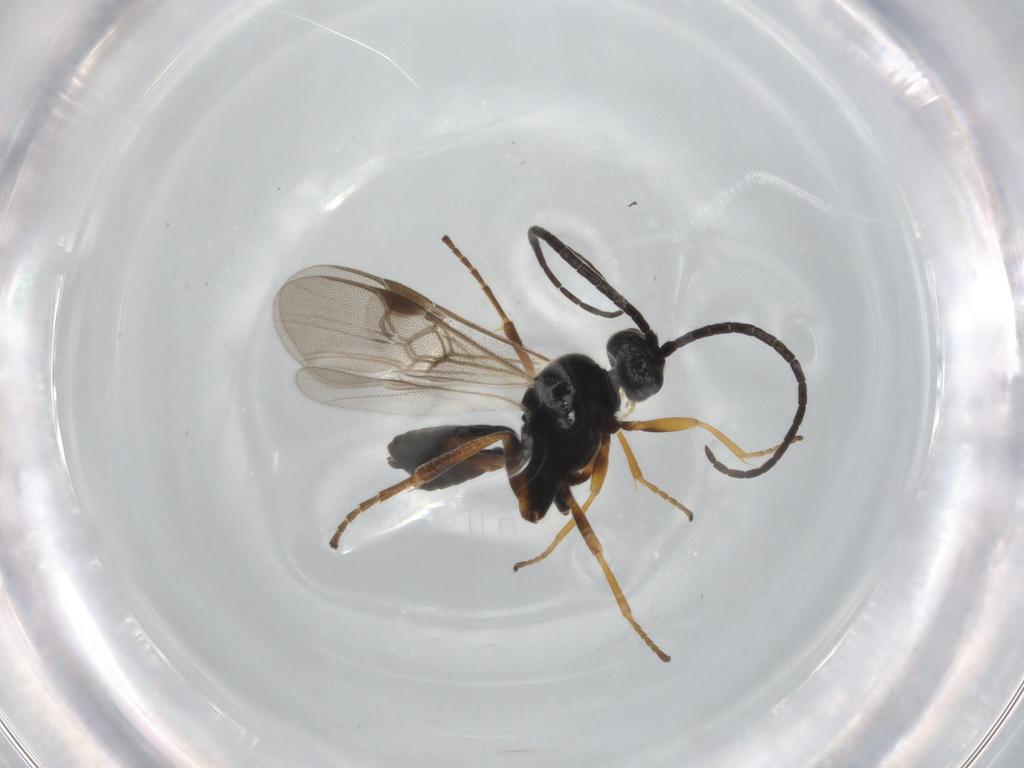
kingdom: Animalia
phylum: Arthropoda
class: Insecta
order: Hymenoptera
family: Braconidae
